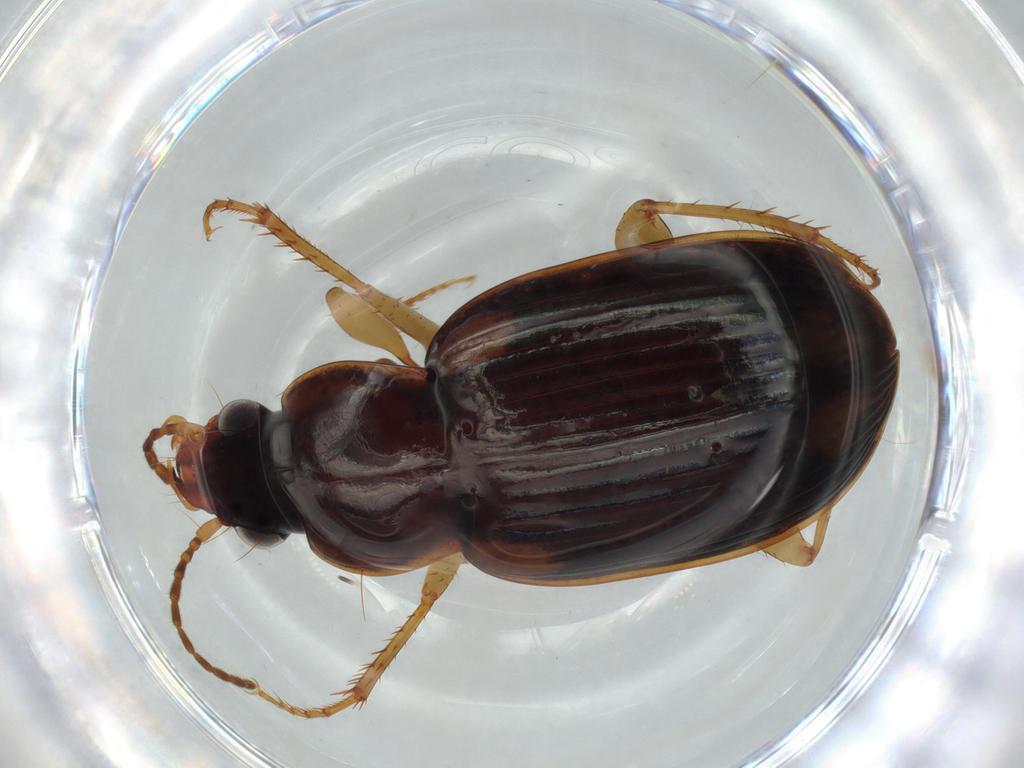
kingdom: Animalia
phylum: Arthropoda
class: Insecta
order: Coleoptera
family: Carabidae
